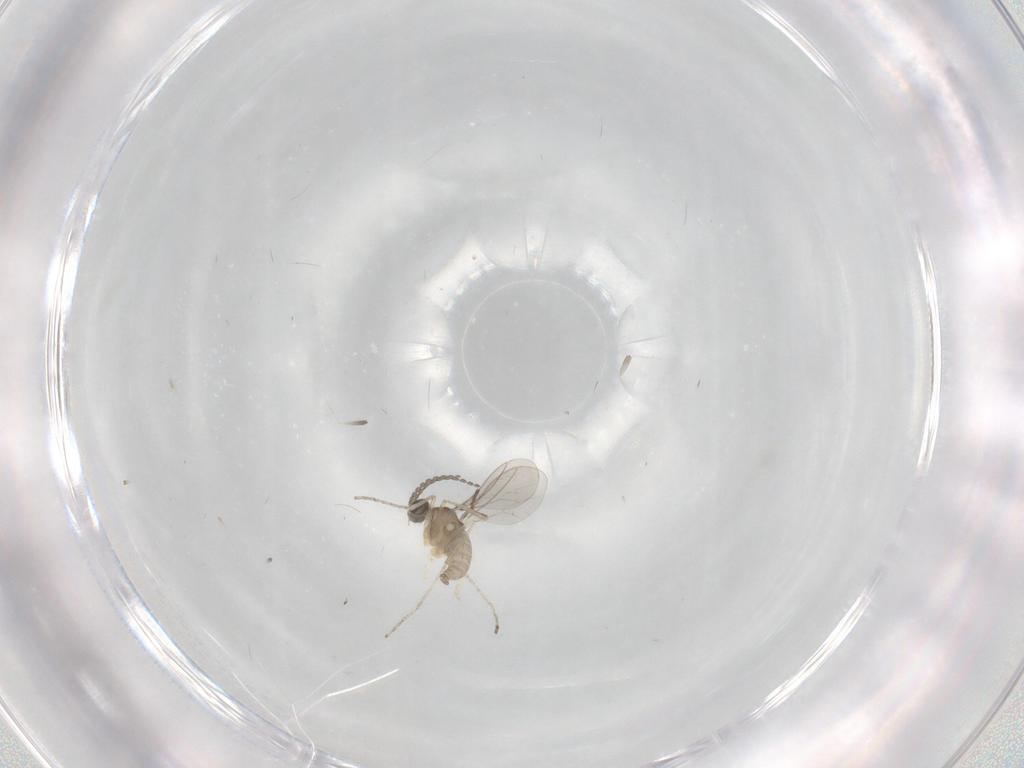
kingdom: Animalia
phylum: Arthropoda
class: Insecta
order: Diptera
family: Cecidomyiidae
